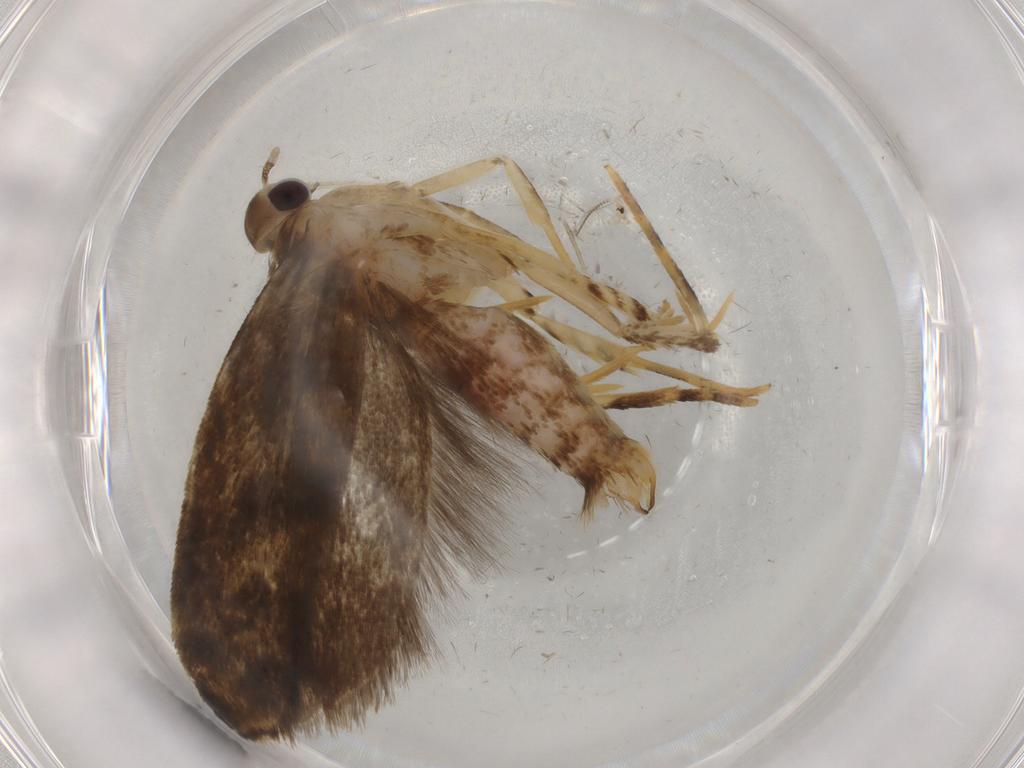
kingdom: Animalia
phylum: Arthropoda
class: Insecta
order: Lepidoptera
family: Gelechiidae
